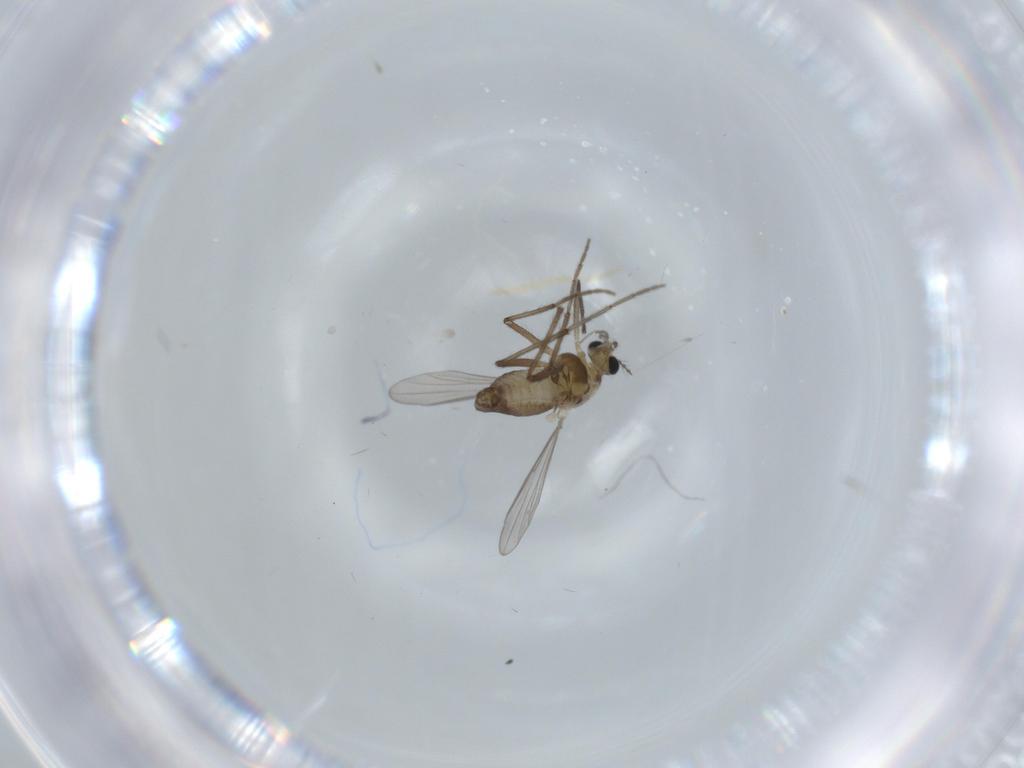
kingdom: Animalia
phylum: Arthropoda
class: Insecta
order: Diptera
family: Chironomidae
